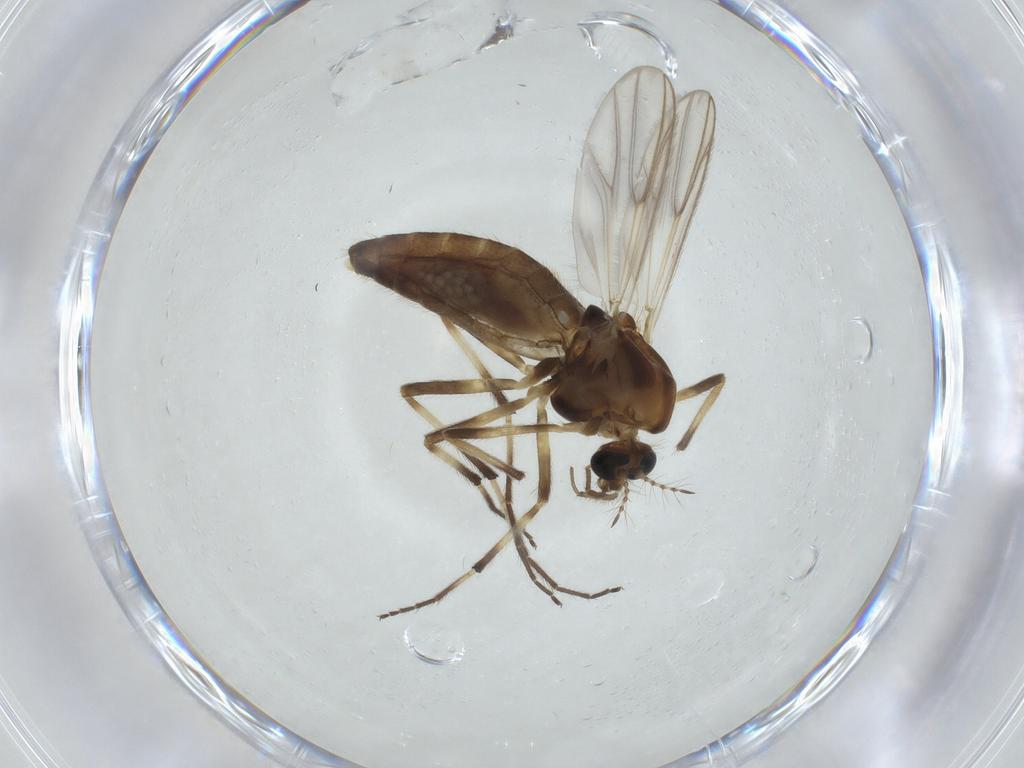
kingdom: Animalia
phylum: Arthropoda
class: Insecta
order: Diptera
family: Chironomidae
